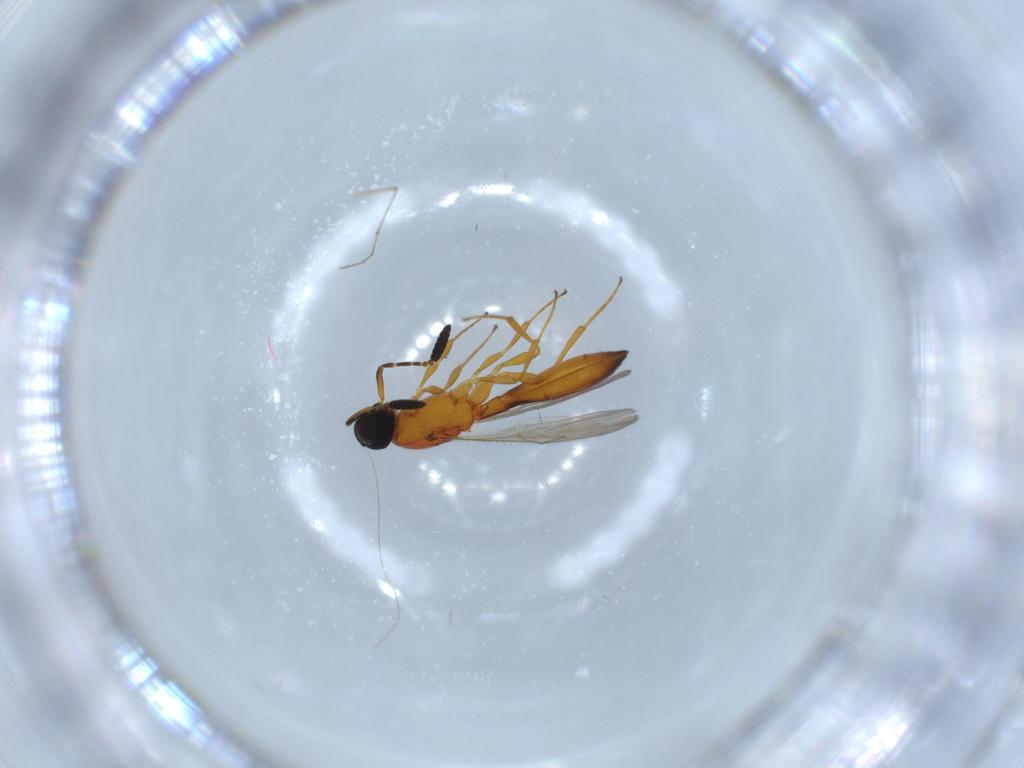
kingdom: Animalia
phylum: Arthropoda
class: Insecta
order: Hymenoptera
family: Scelionidae
